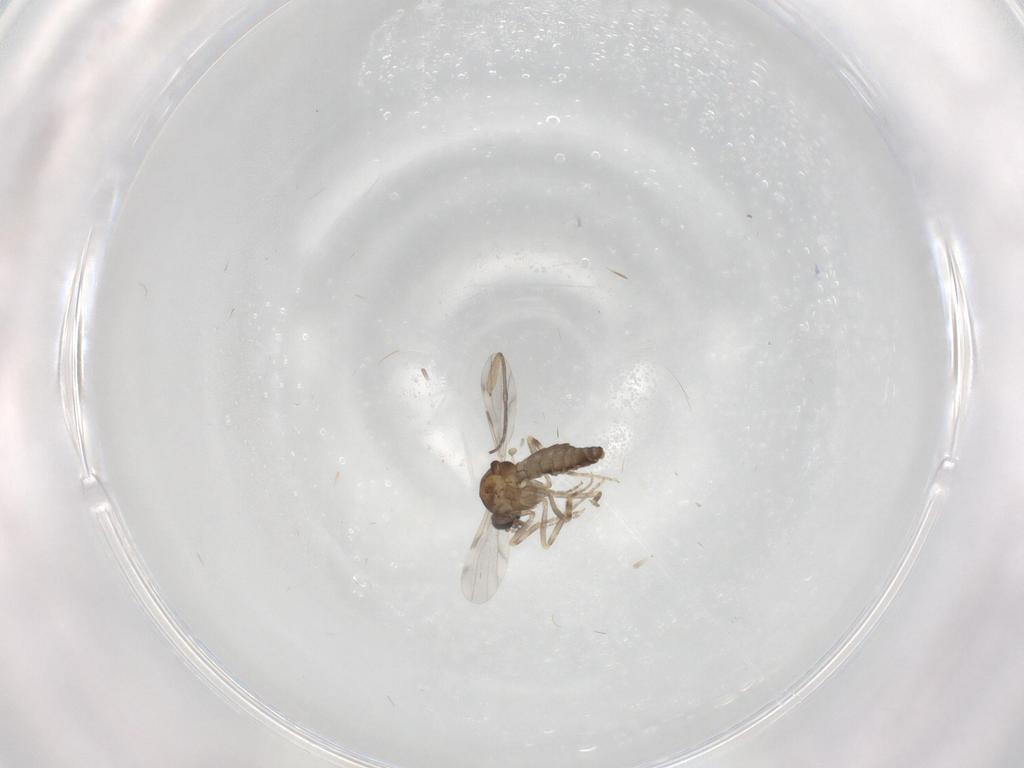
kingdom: Animalia
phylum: Arthropoda
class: Insecta
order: Diptera
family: Ceratopogonidae
